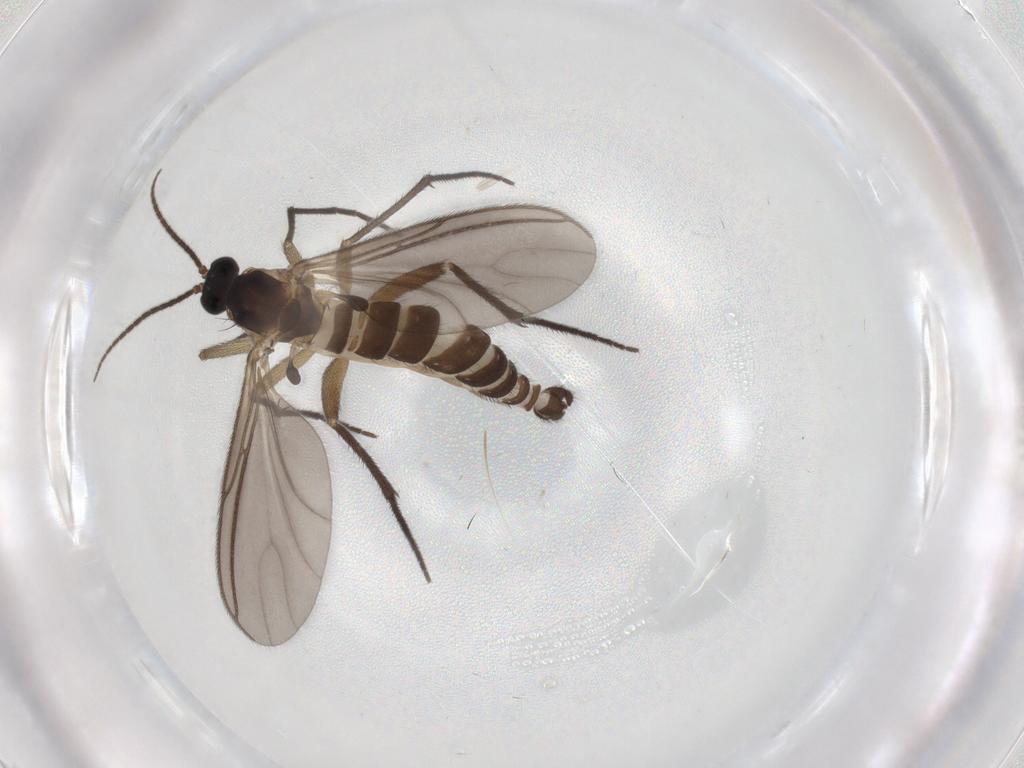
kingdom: Animalia
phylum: Arthropoda
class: Insecta
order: Diptera
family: Sciaridae
